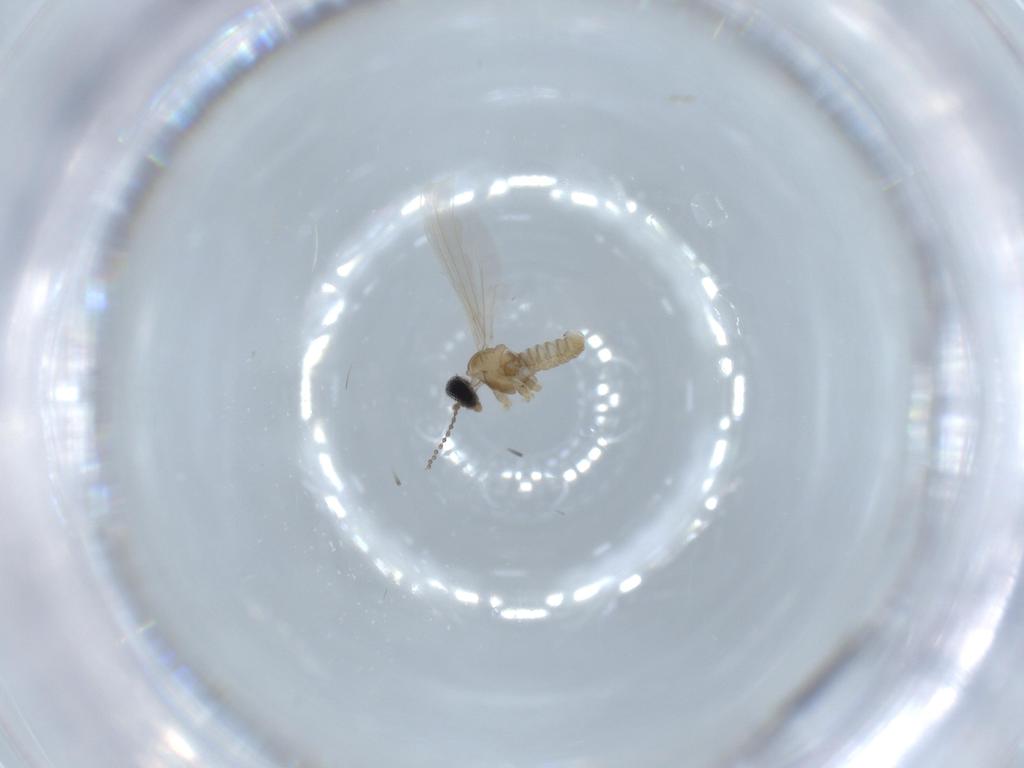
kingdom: Animalia
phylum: Arthropoda
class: Insecta
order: Diptera
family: Cecidomyiidae
